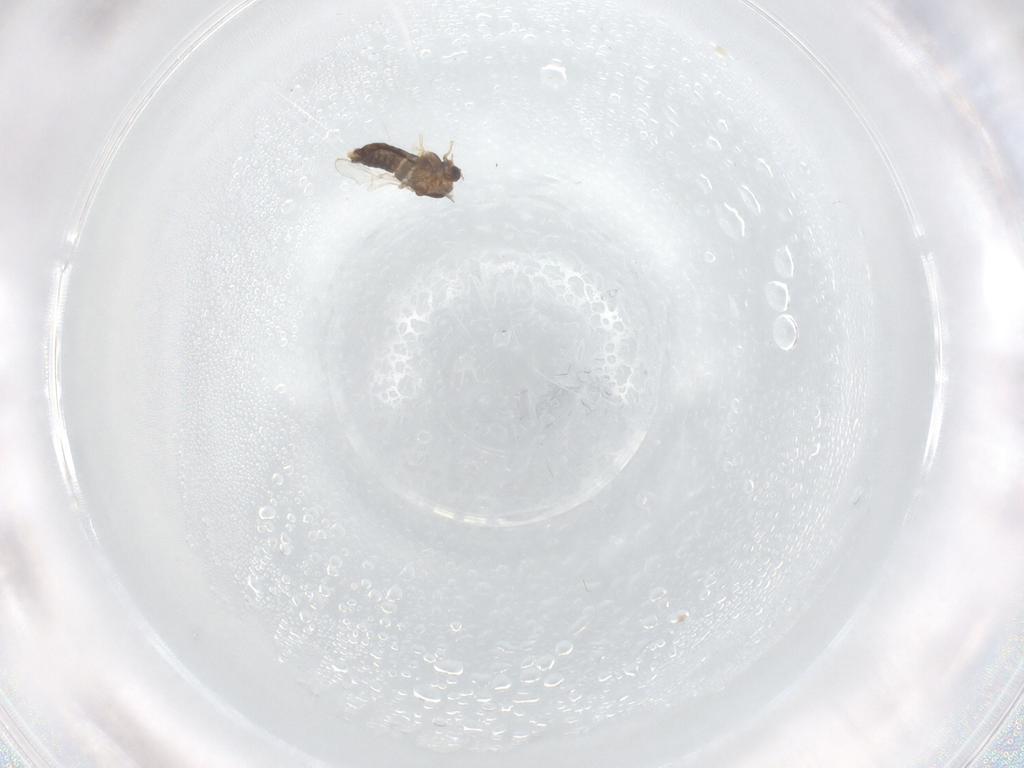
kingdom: Animalia
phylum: Arthropoda
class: Insecta
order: Diptera
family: Chironomidae
